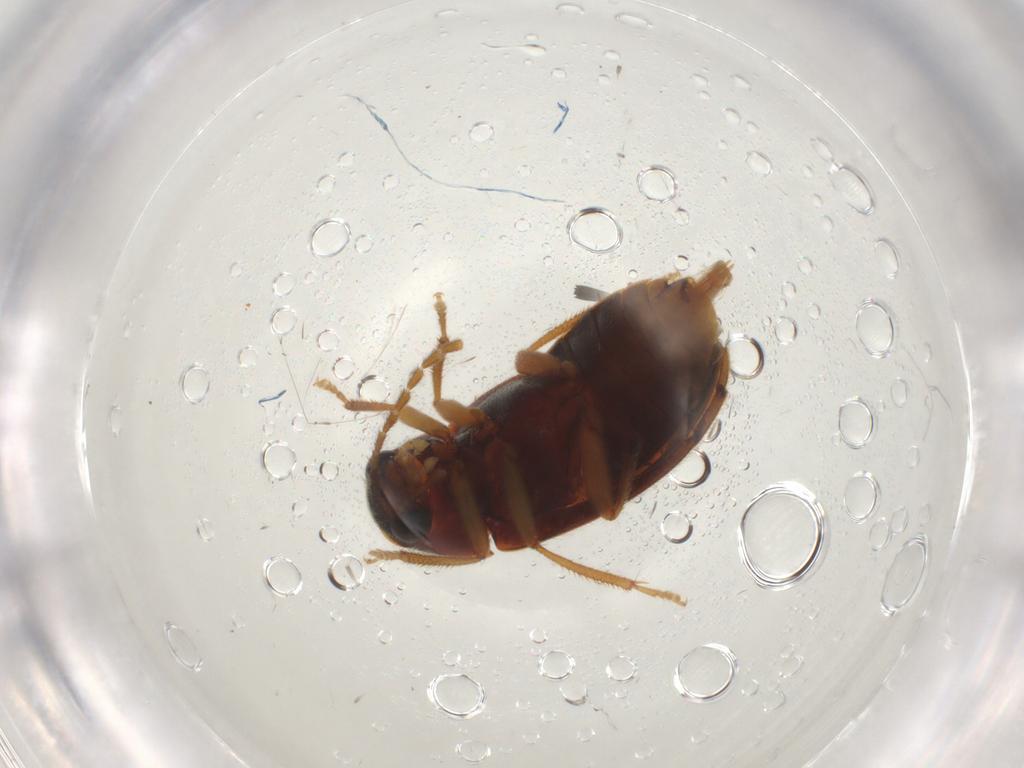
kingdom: Animalia
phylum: Arthropoda
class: Insecta
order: Coleoptera
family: Ptilodactylidae
